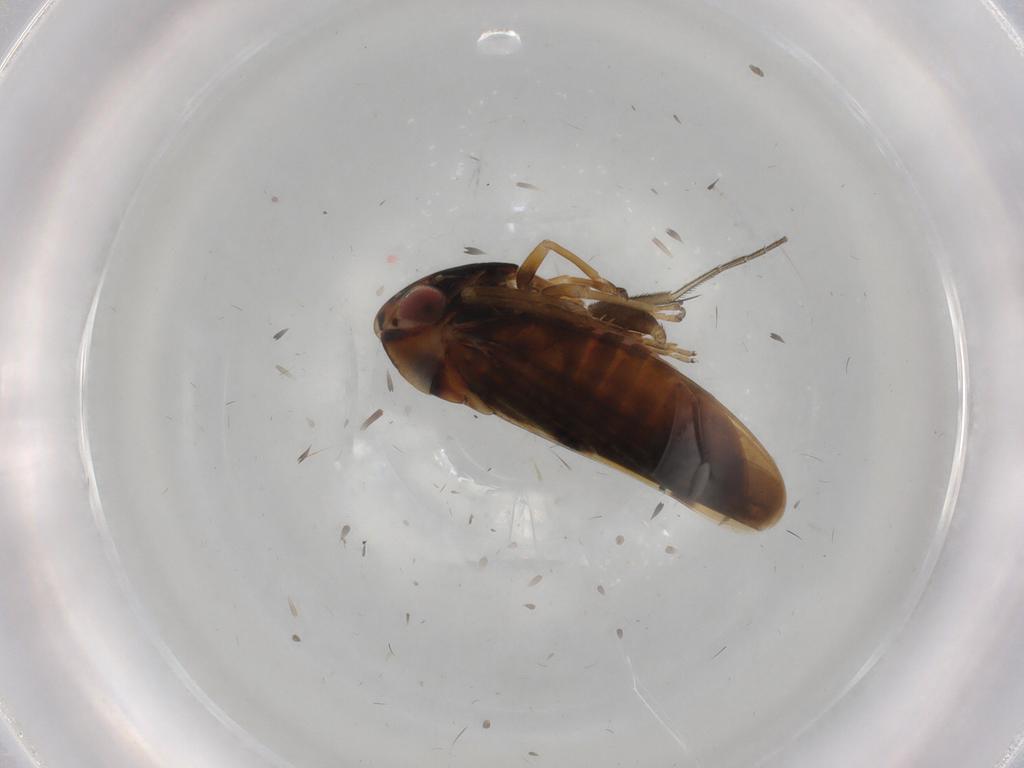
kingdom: Animalia
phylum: Arthropoda
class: Insecta
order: Hemiptera
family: Cicadellidae
